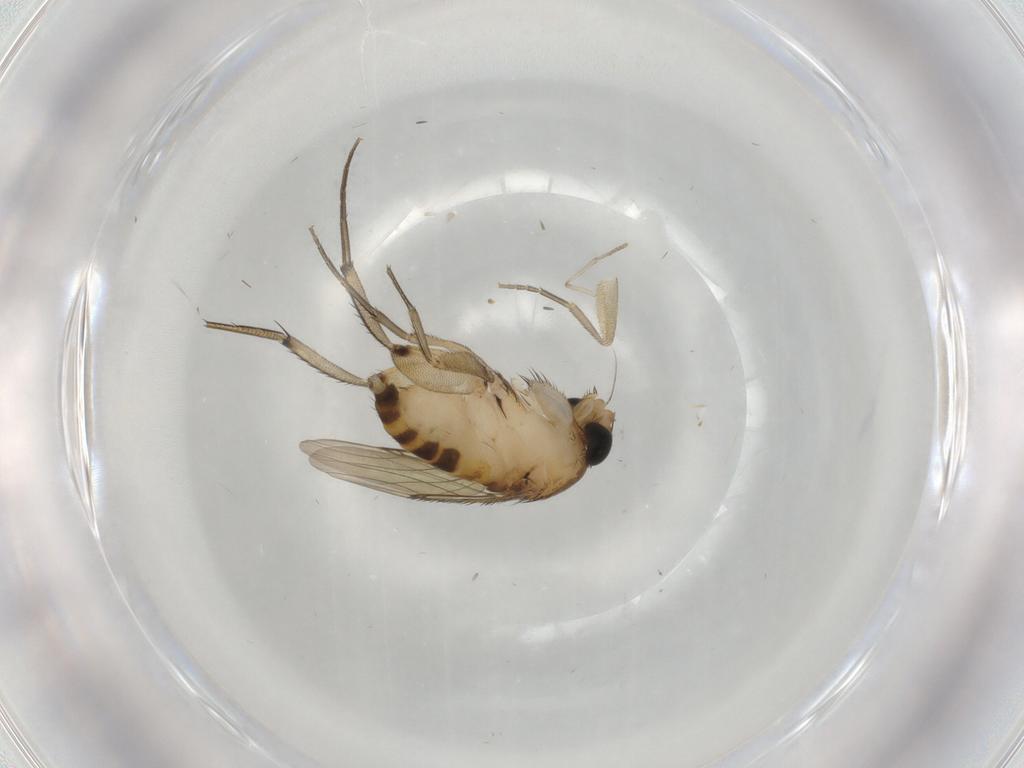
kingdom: Animalia
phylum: Arthropoda
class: Insecta
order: Diptera
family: Phoridae
